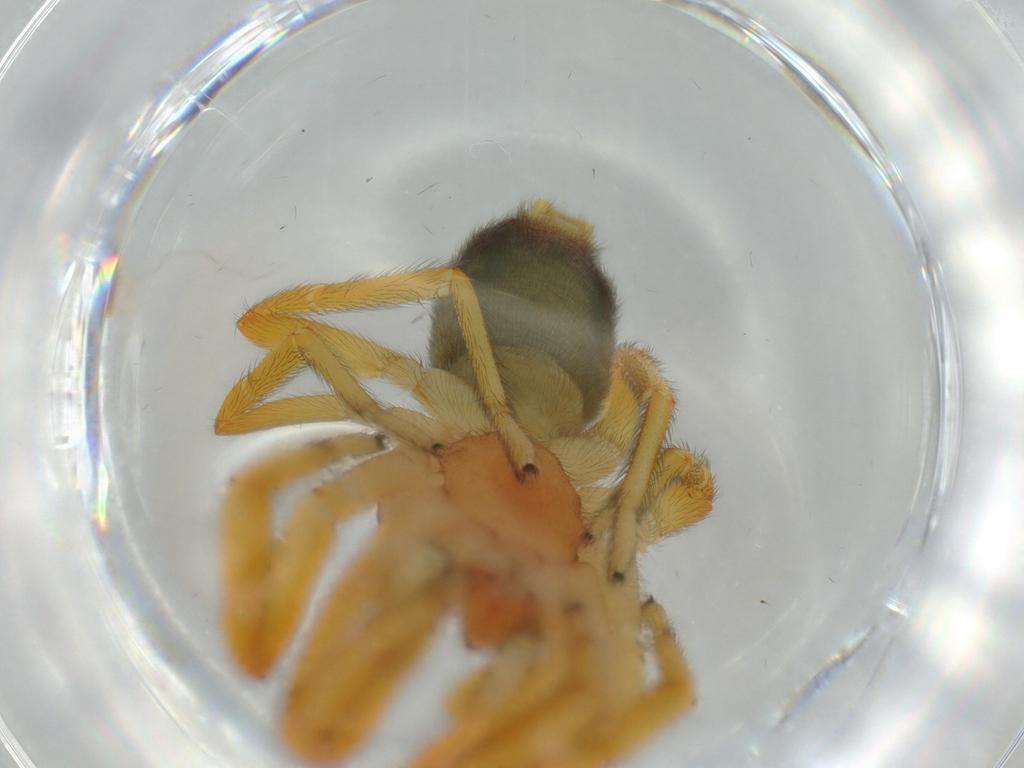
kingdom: Animalia
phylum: Arthropoda
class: Arachnida
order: Araneae
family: Caponiidae
